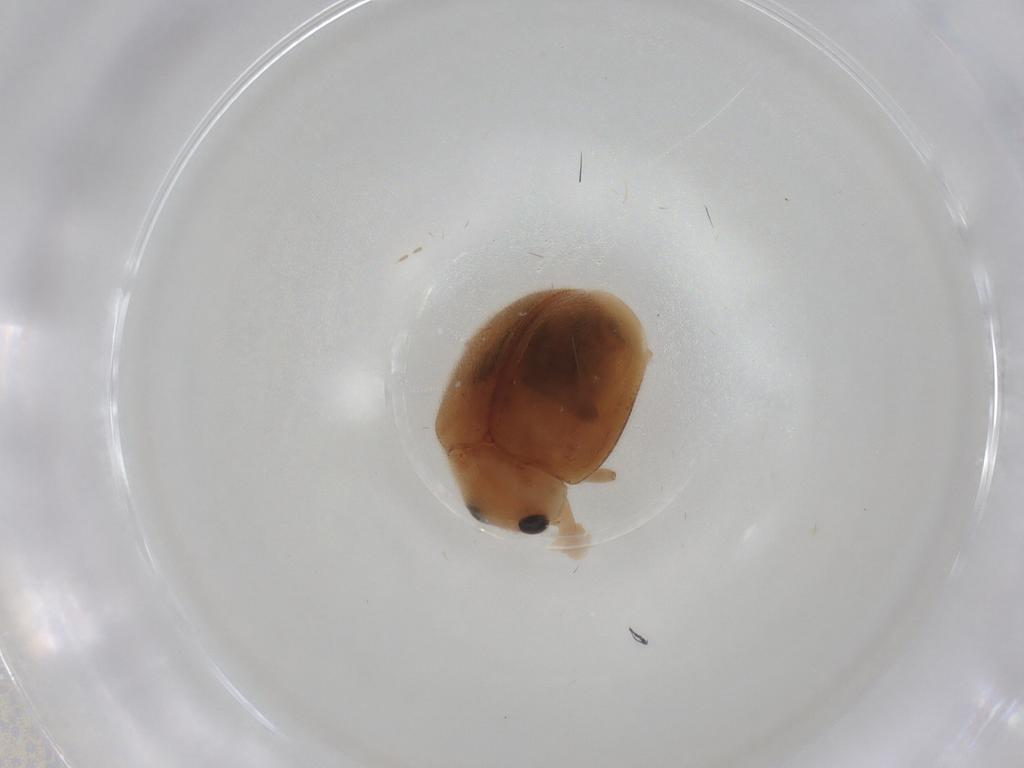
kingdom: Animalia
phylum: Arthropoda
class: Insecta
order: Coleoptera
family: Coccinellidae
